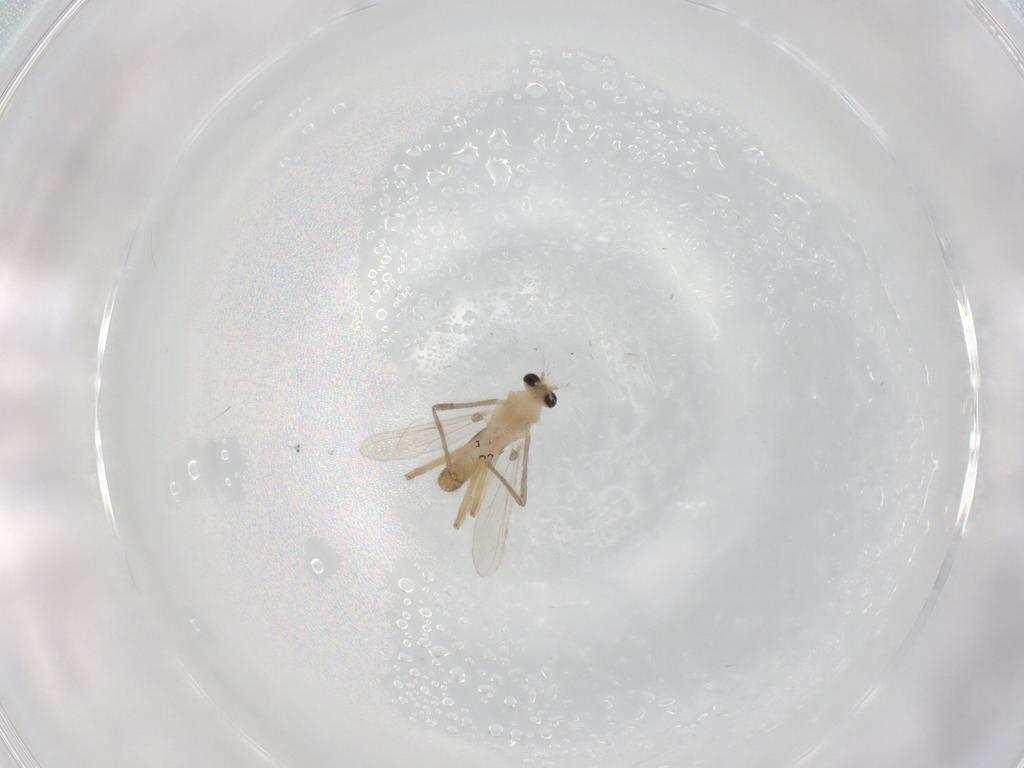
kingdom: Animalia
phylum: Arthropoda
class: Insecta
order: Diptera
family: Chironomidae
